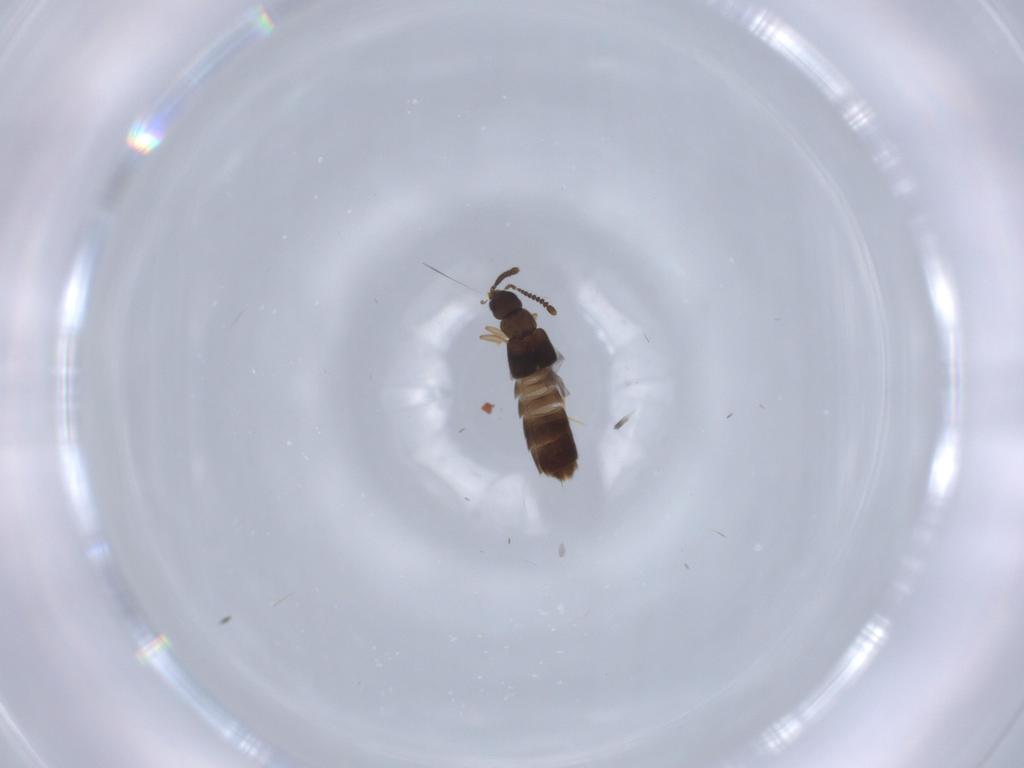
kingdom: Animalia
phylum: Arthropoda
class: Insecta
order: Coleoptera
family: Staphylinidae
